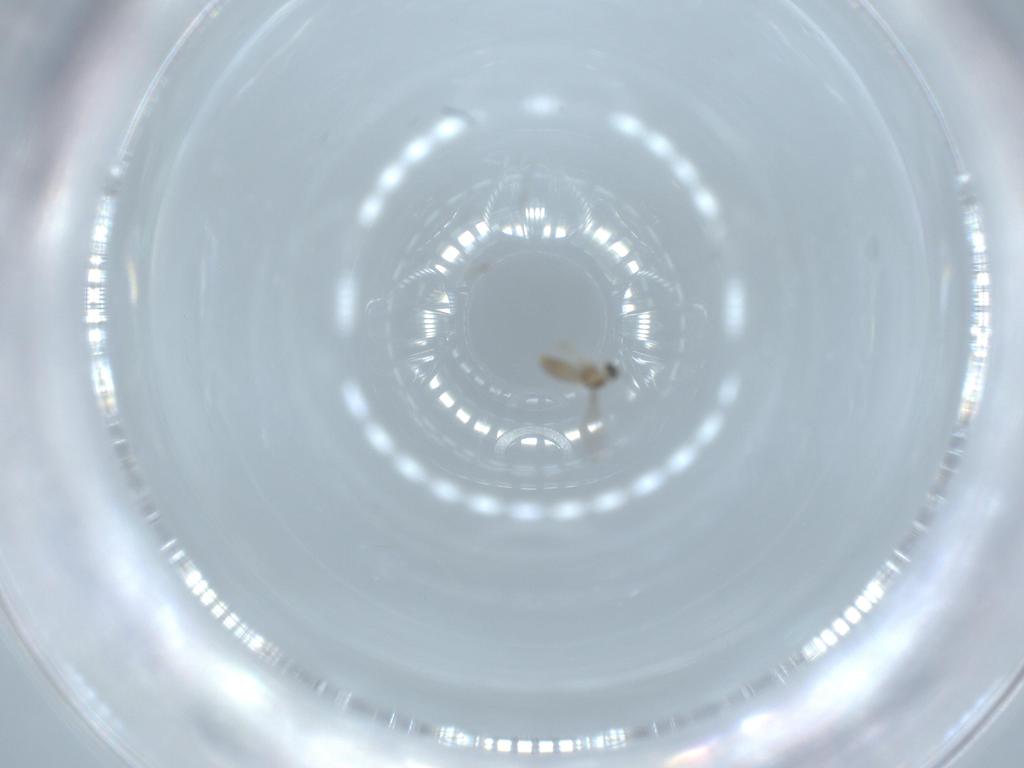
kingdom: Animalia
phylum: Arthropoda
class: Insecta
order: Diptera
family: Cecidomyiidae
